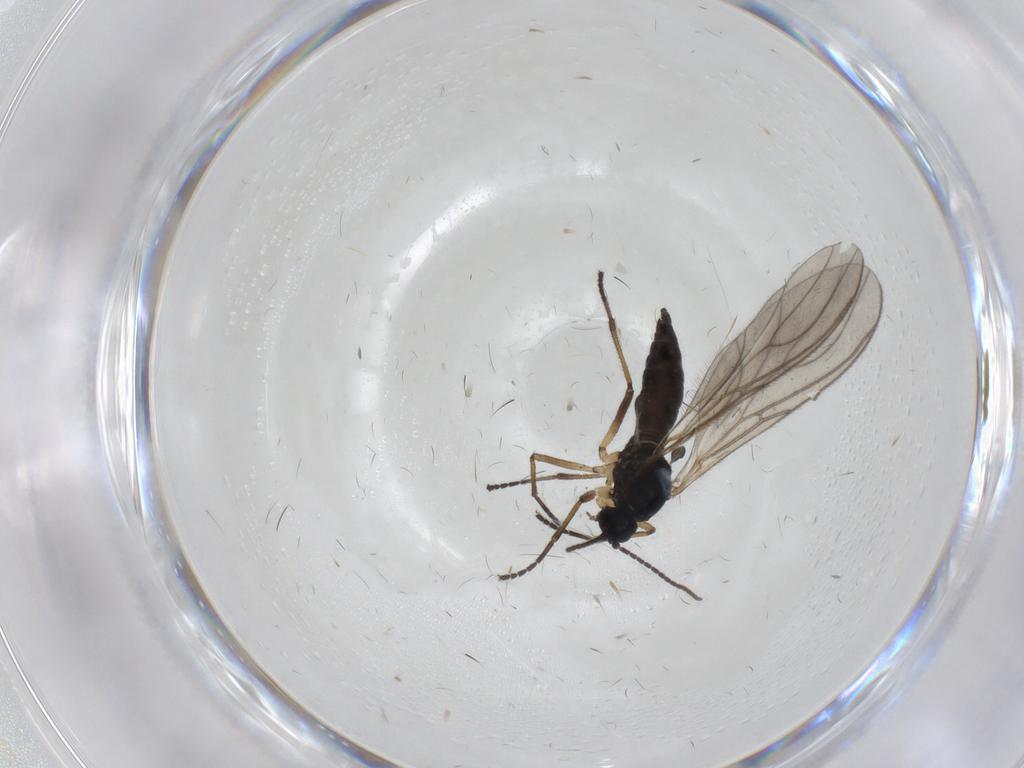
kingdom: Animalia
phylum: Arthropoda
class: Insecta
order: Diptera
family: Sciaridae
